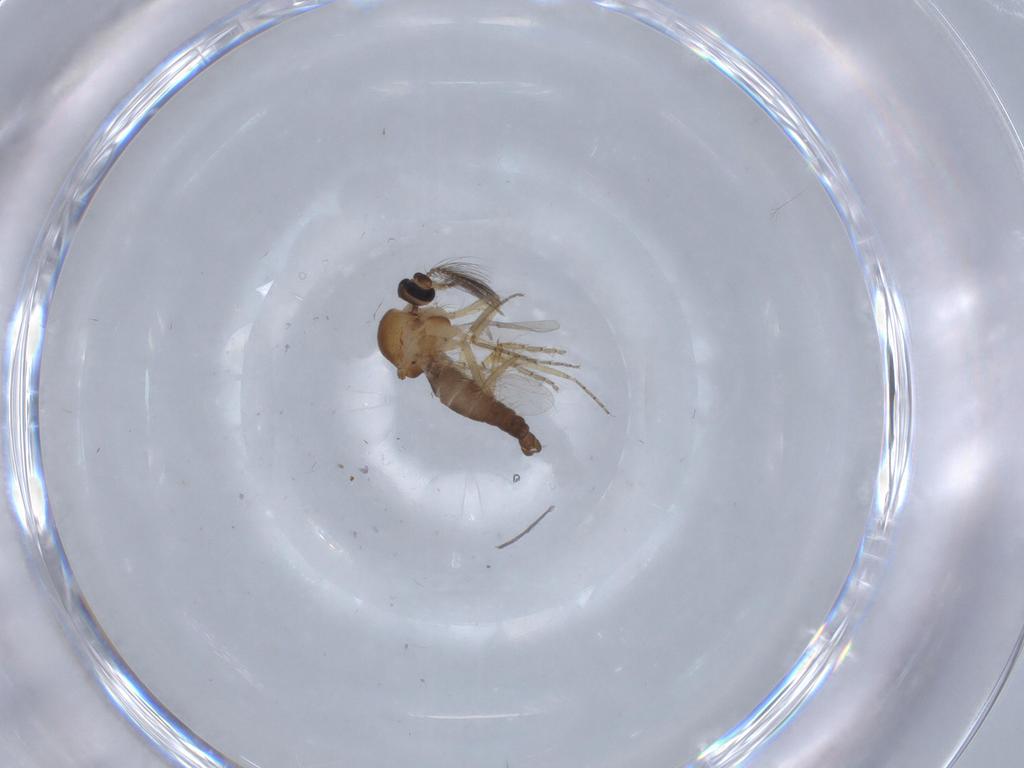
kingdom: Animalia
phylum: Arthropoda
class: Insecta
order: Diptera
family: Ceratopogonidae
